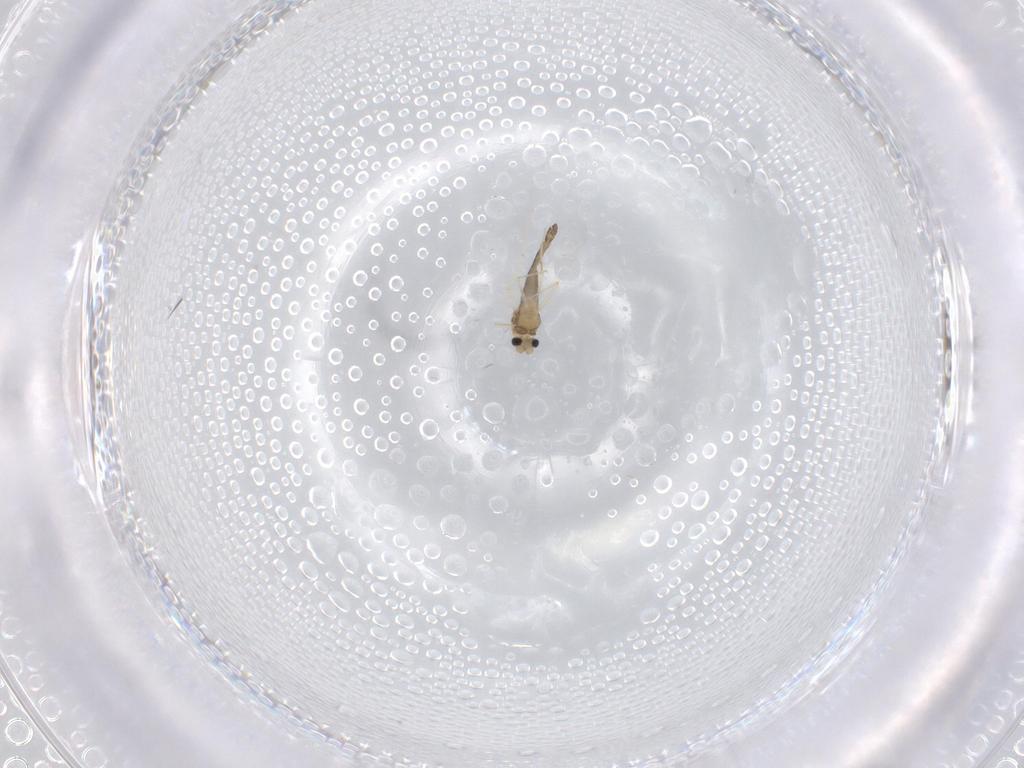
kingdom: Animalia
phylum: Arthropoda
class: Insecta
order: Diptera
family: Chironomidae
